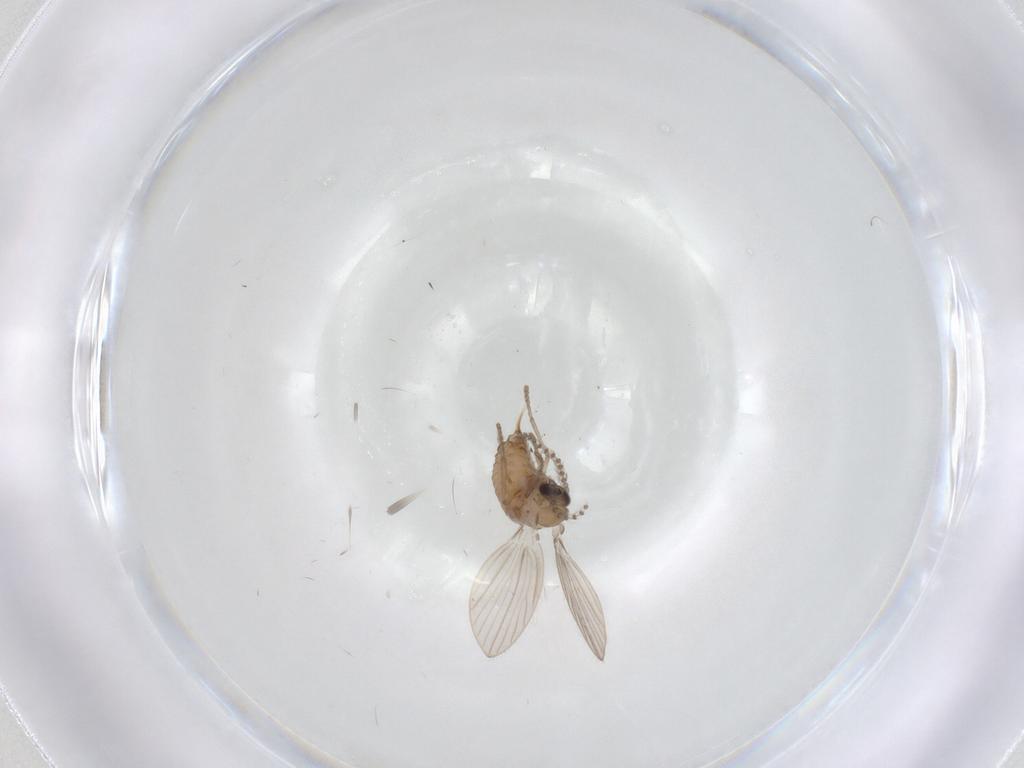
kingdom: Animalia
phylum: Arthropoda
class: Insecta
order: Diptera
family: Psychodidae
